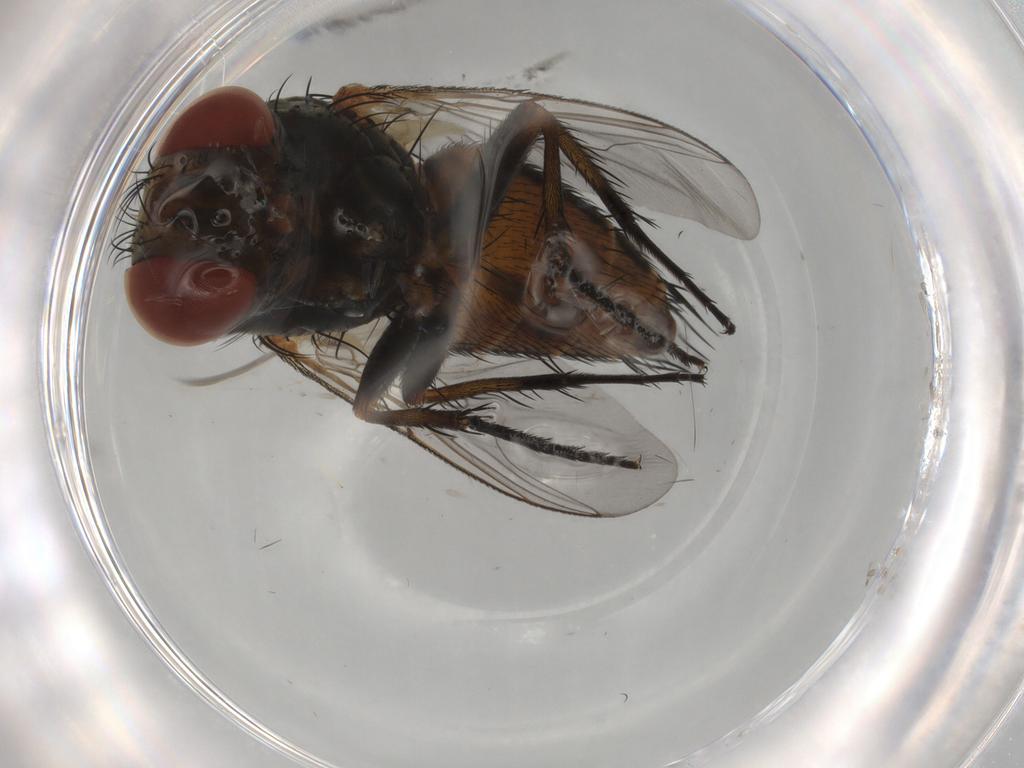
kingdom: Animalia
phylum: Arthropoda
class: Insecta
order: Diptera
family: Sarcophagidae
